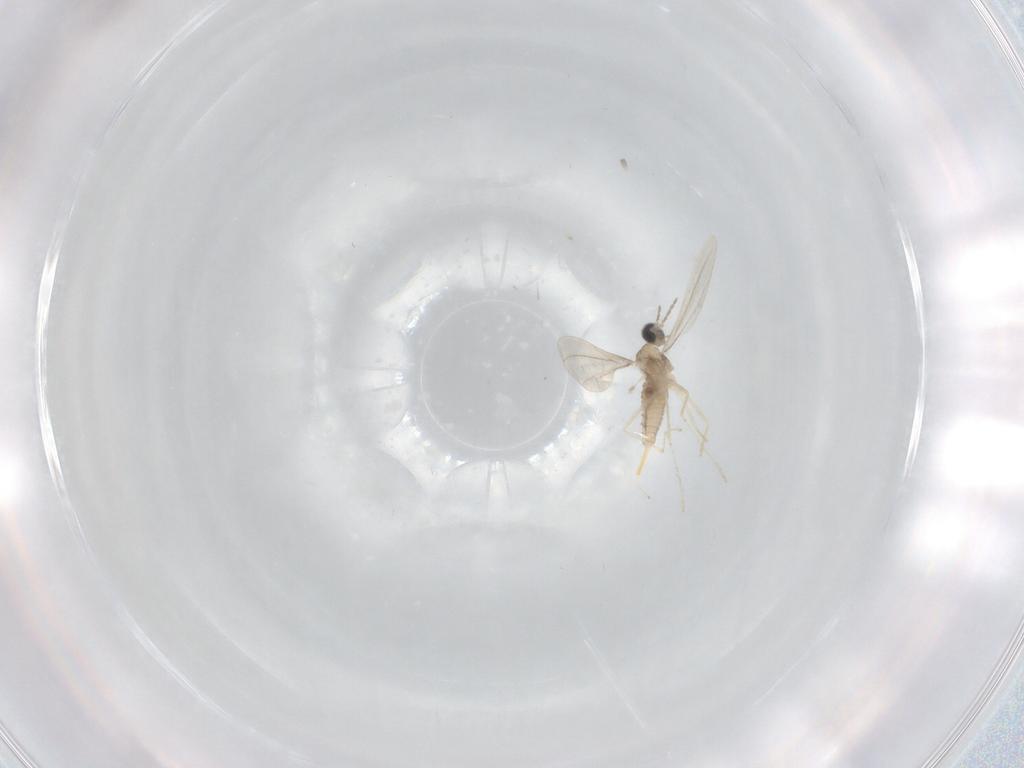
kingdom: Animalia
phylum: Arthropoda
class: Insecta
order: Diptera
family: Cecidomyiidae
